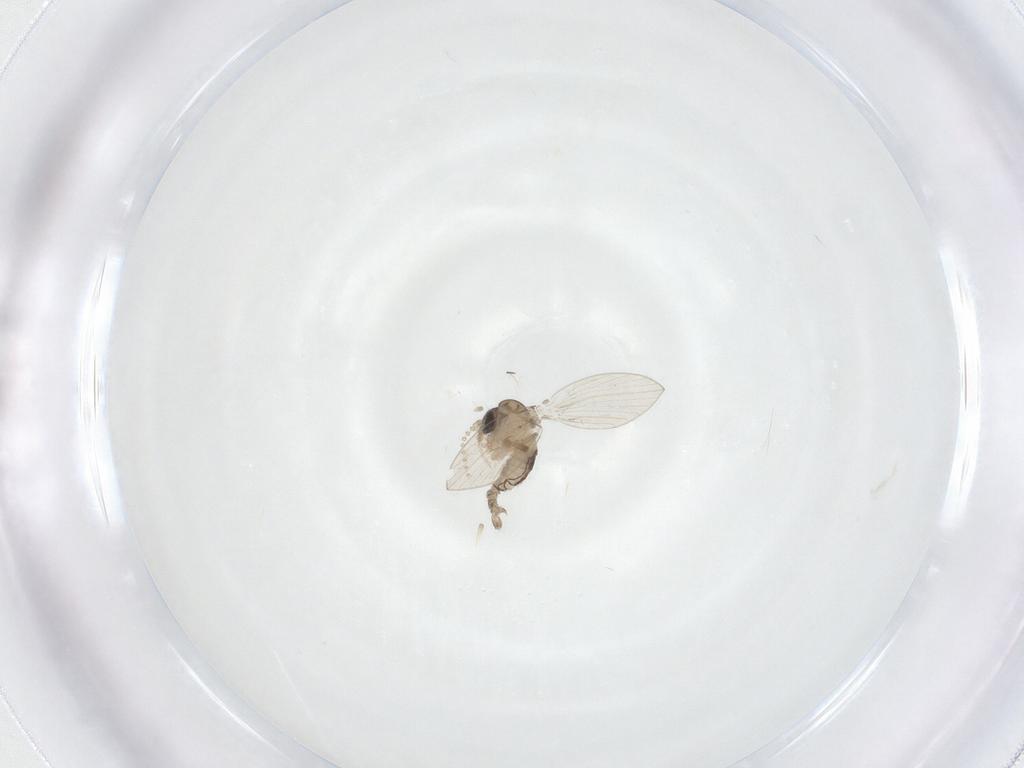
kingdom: Animalia
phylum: Arthropoda
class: Insecta
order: Diptera
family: Psychodidae
